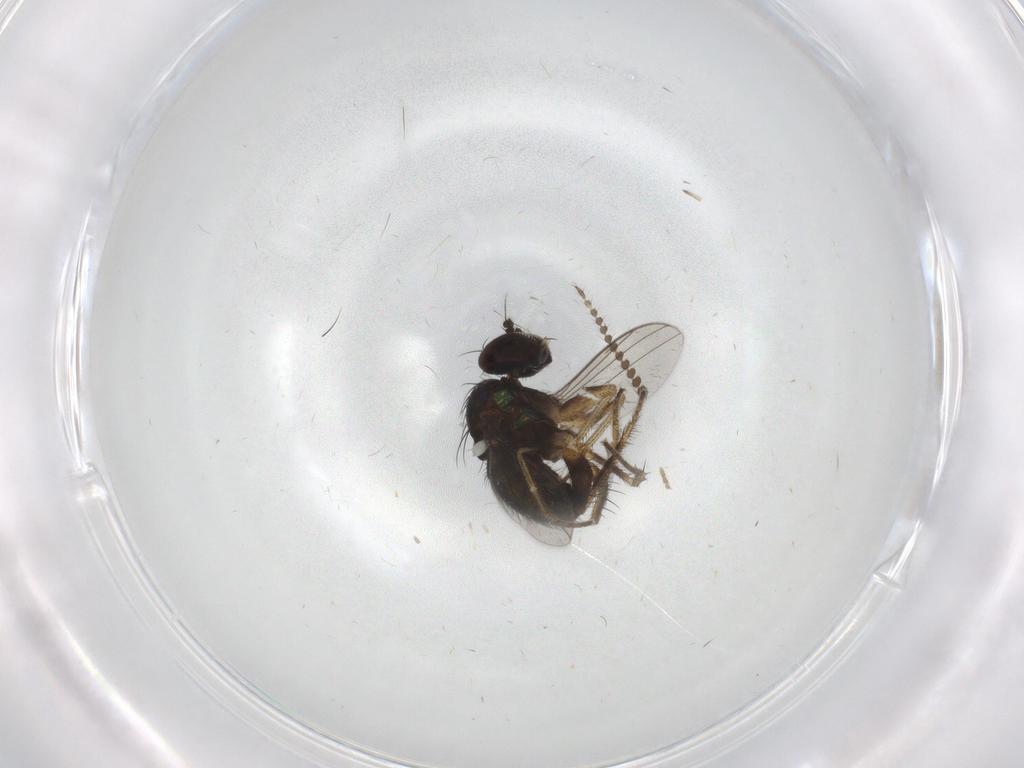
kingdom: Animalia
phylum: Arthropoda
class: Insecta
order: Diptera
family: Dolichopodidae
